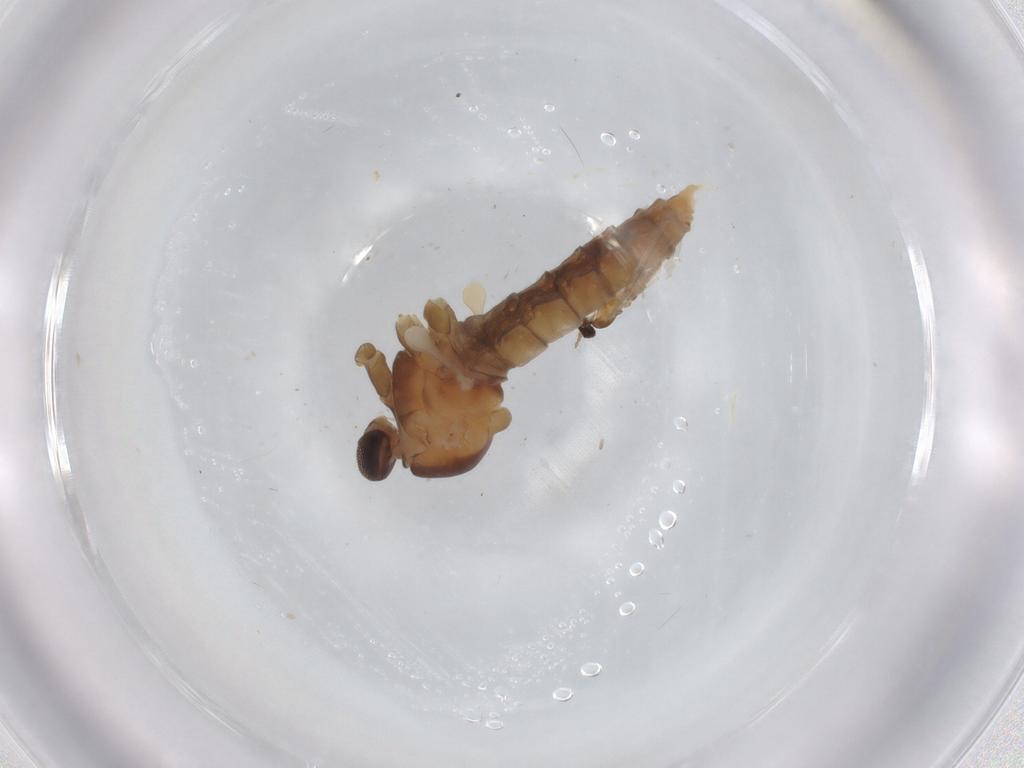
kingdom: Animalia
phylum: Arthropoda
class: Insecta
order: Diptera
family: Cecidomyiidae
